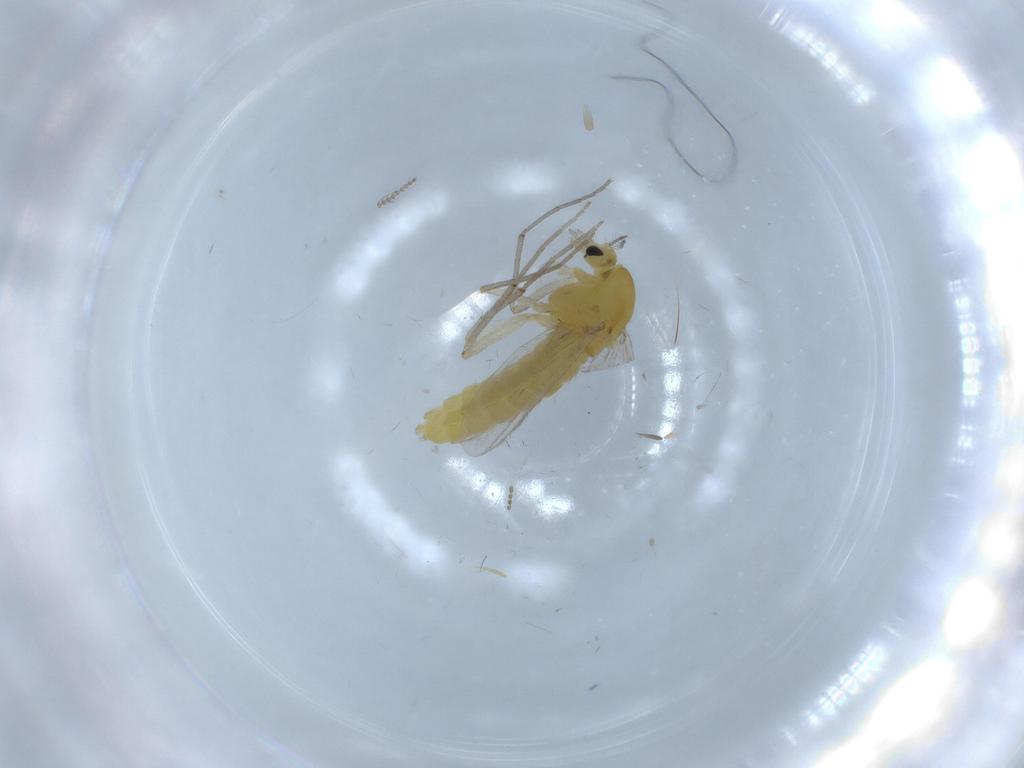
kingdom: Animalia
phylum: Arthropoda
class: Insecta
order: Diptera
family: Chironomidae
